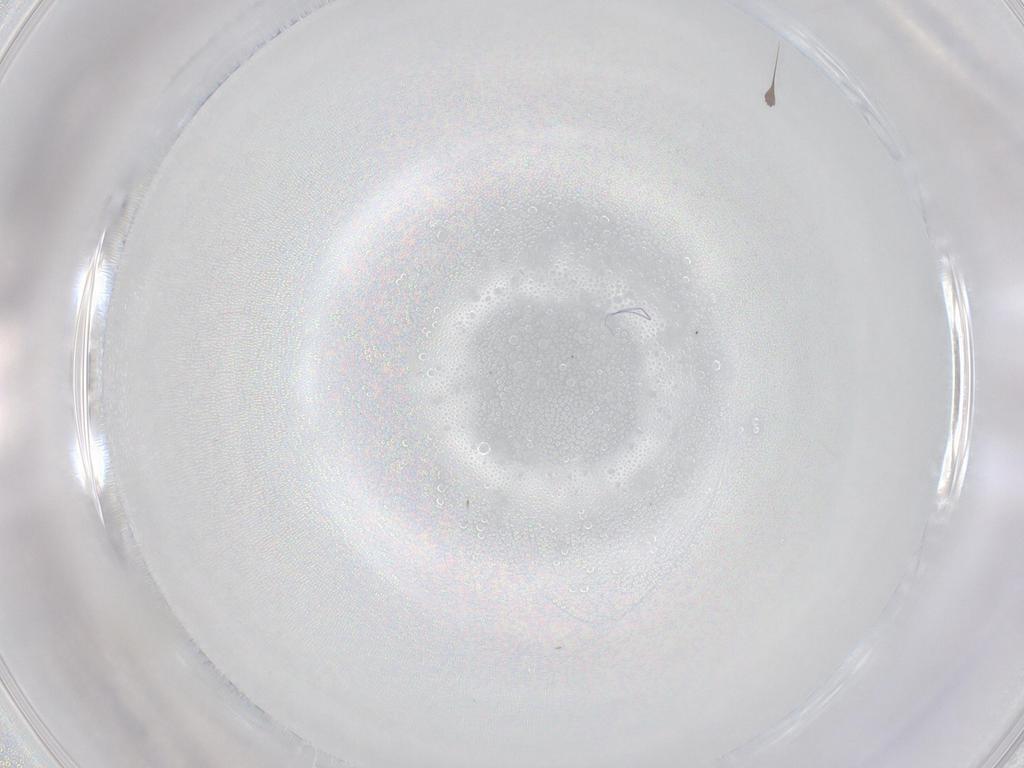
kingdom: Animalia
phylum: Arthropoda
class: Insecta
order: Diptera
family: Cecidomyiidae
